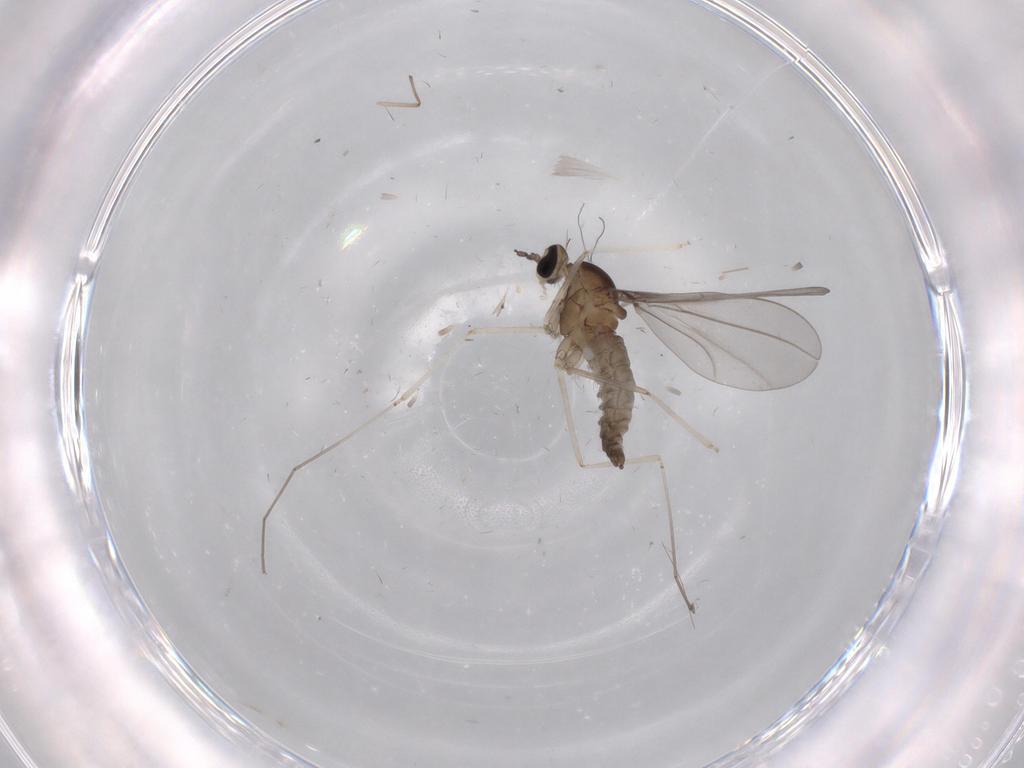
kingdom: Animalia
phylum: Arthropoda
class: Insecta
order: Diptera
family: Cecidomyiidae
